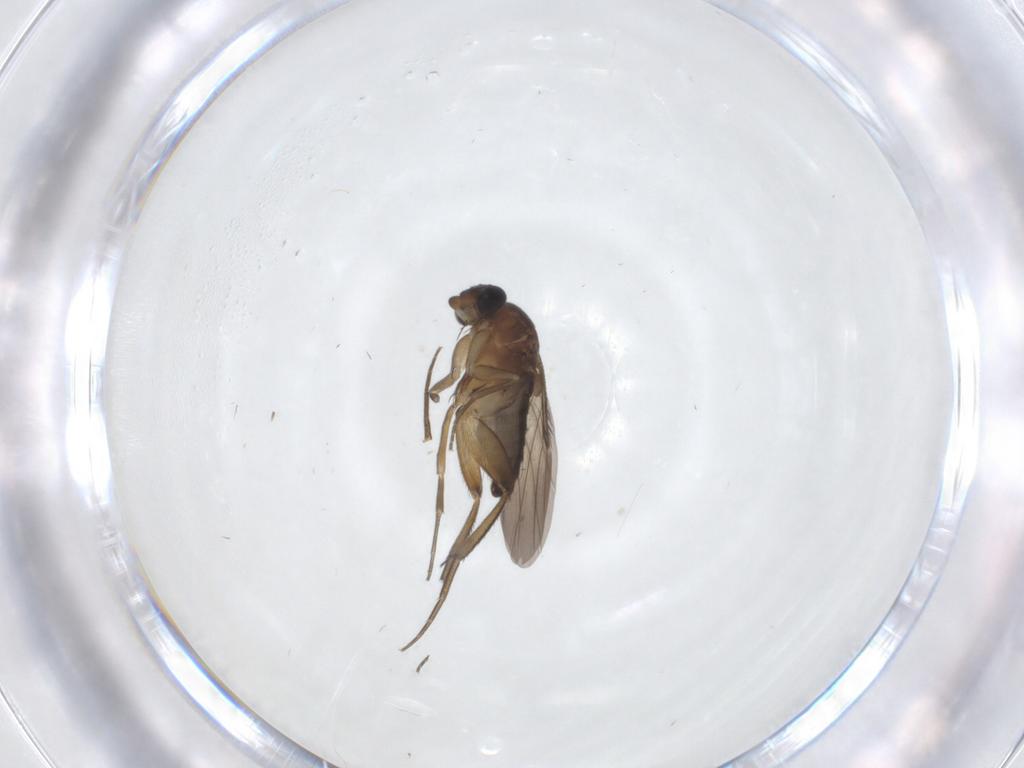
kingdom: Animalia
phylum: Arthropoda
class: Insecta
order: Diptera
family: Phoridae
